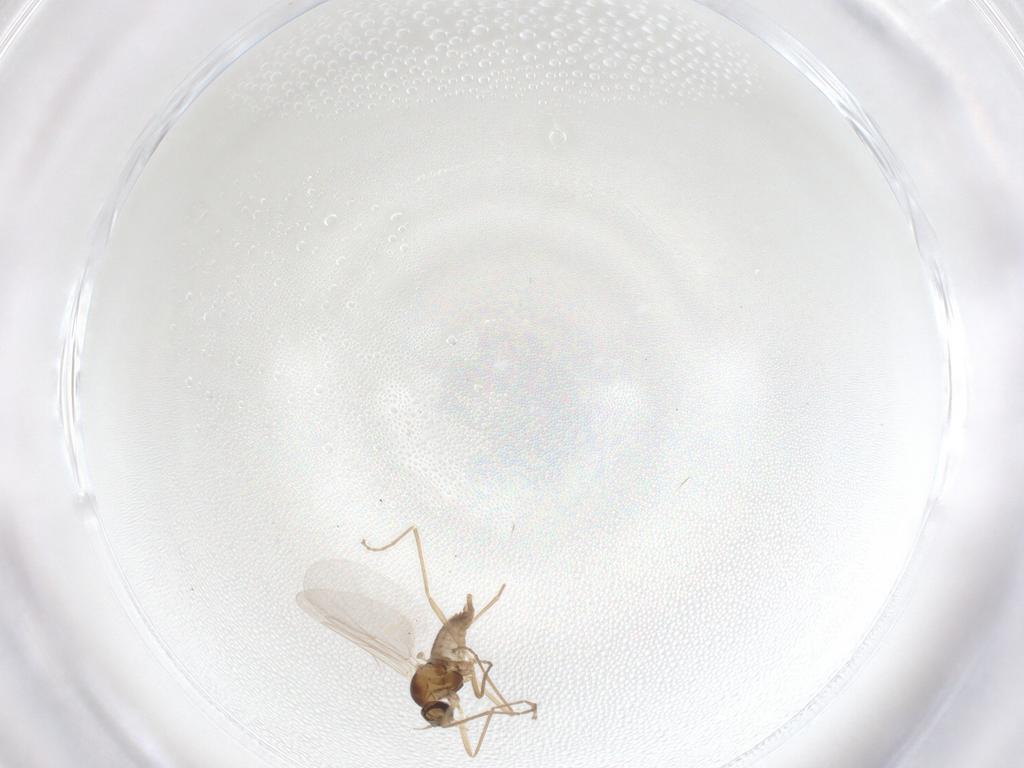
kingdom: Animalia
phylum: Arthropoda
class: Insecta
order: Diptera
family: Cecidomyiidae
